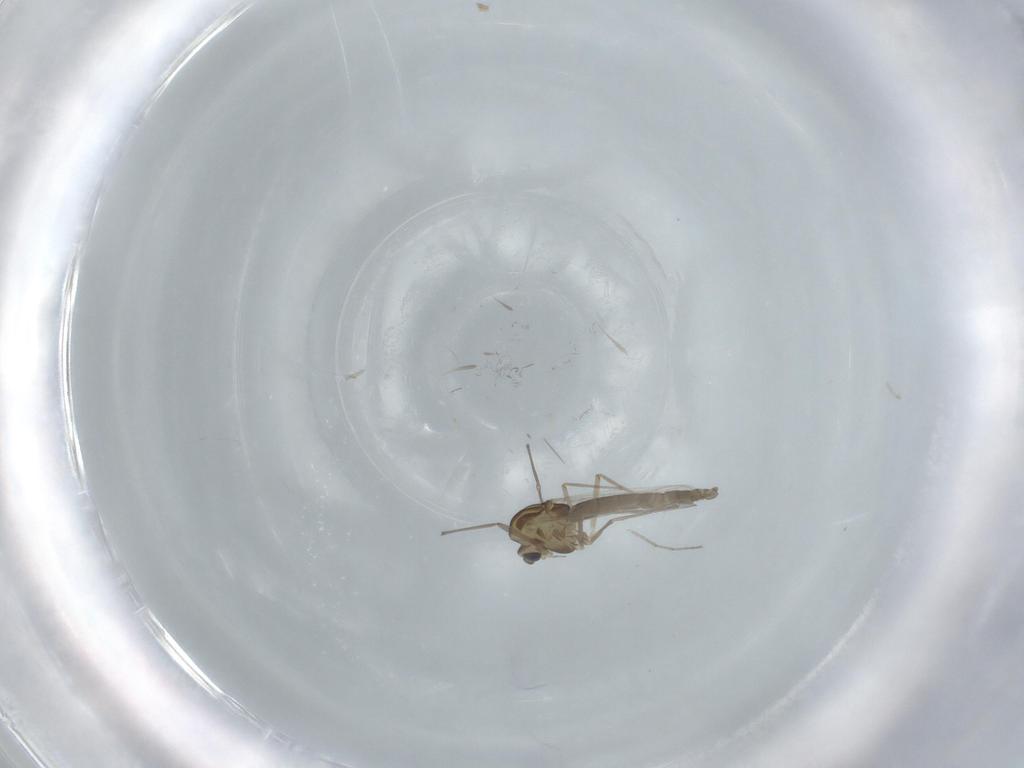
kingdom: Animalia
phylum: Arthropoda
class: Insecta
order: Diptera
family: Chironomidae
